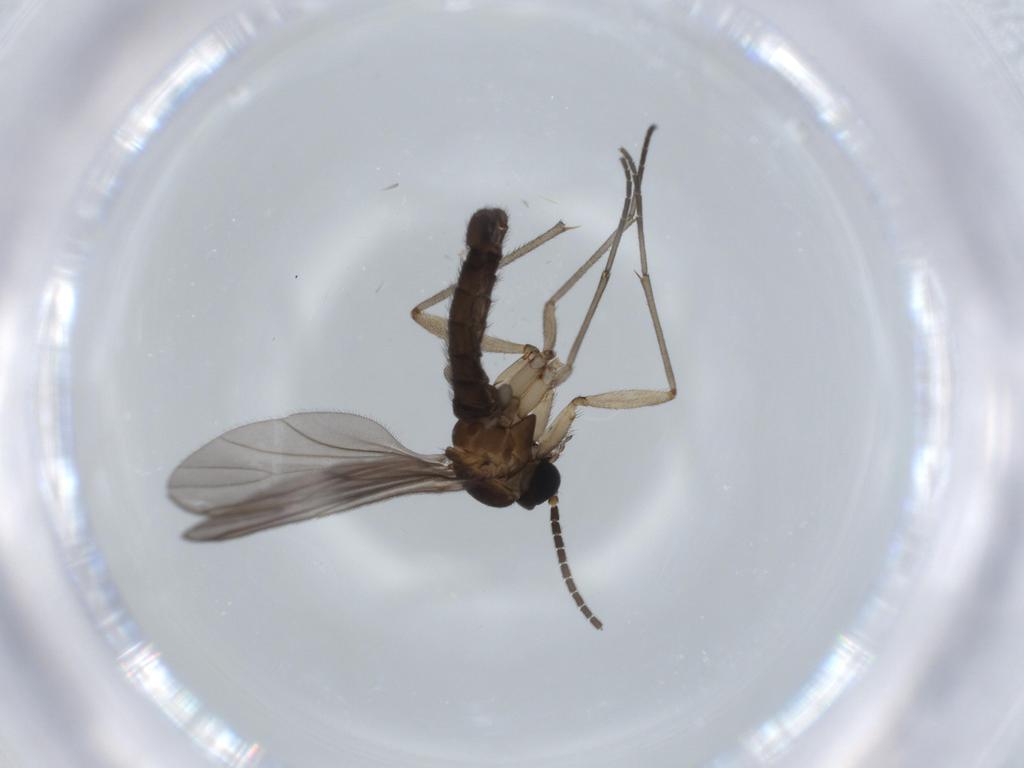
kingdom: Animalia
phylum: Arthropoda
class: Insecta
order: Diptera
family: Sciaridae
